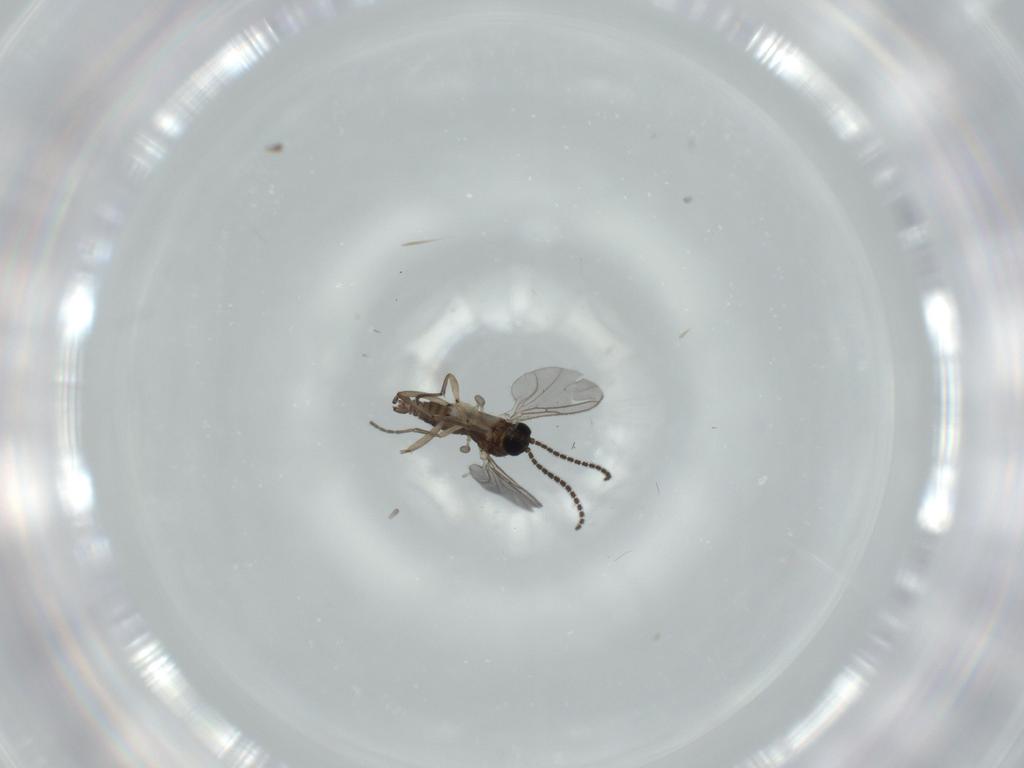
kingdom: Animalia
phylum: Arthropoda
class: Insecta
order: Diptera
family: Sciaridae
